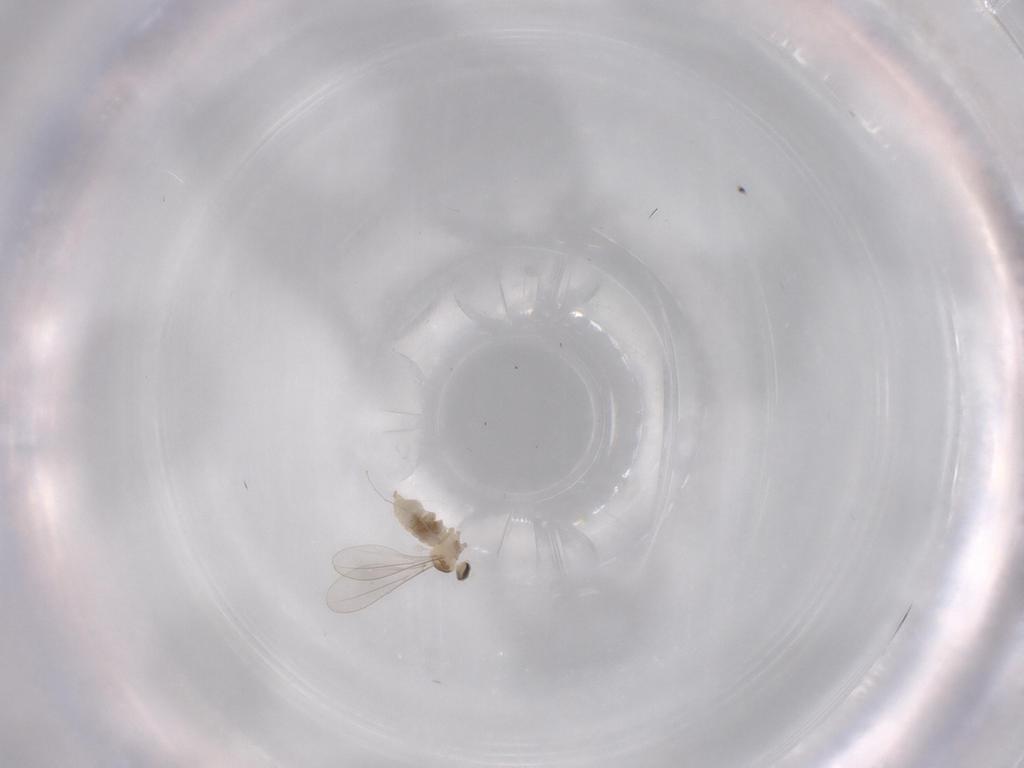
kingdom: Animalia
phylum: Arthropoda
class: Insecta
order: Diptera
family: Cecidomyiidae
